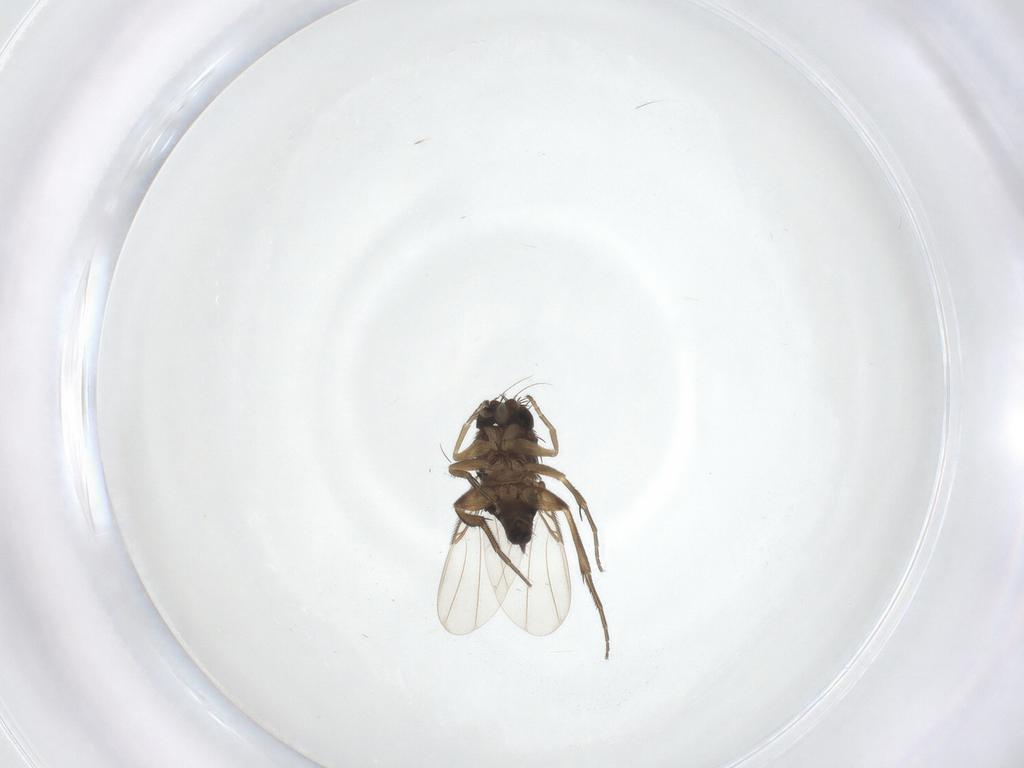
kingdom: Animalia
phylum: Arthropoda
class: Insecta
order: Diptera
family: Phoridae
